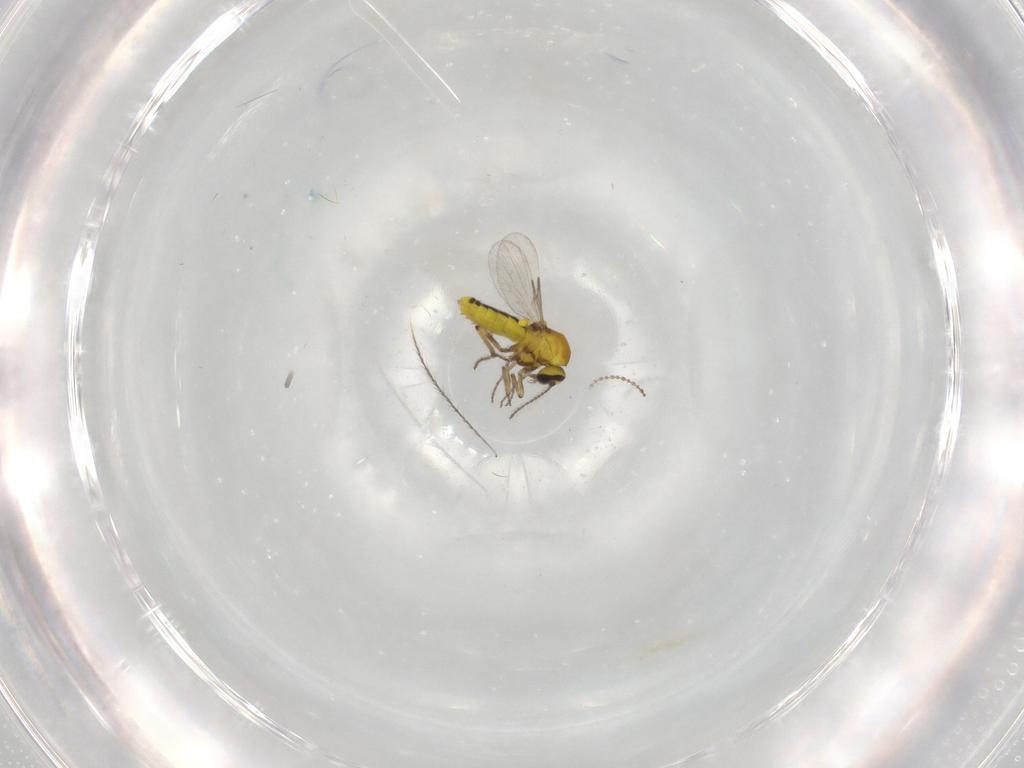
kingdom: Animalia
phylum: Arthropoda
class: Insecta
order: Diptera
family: Ceratopogonidae
